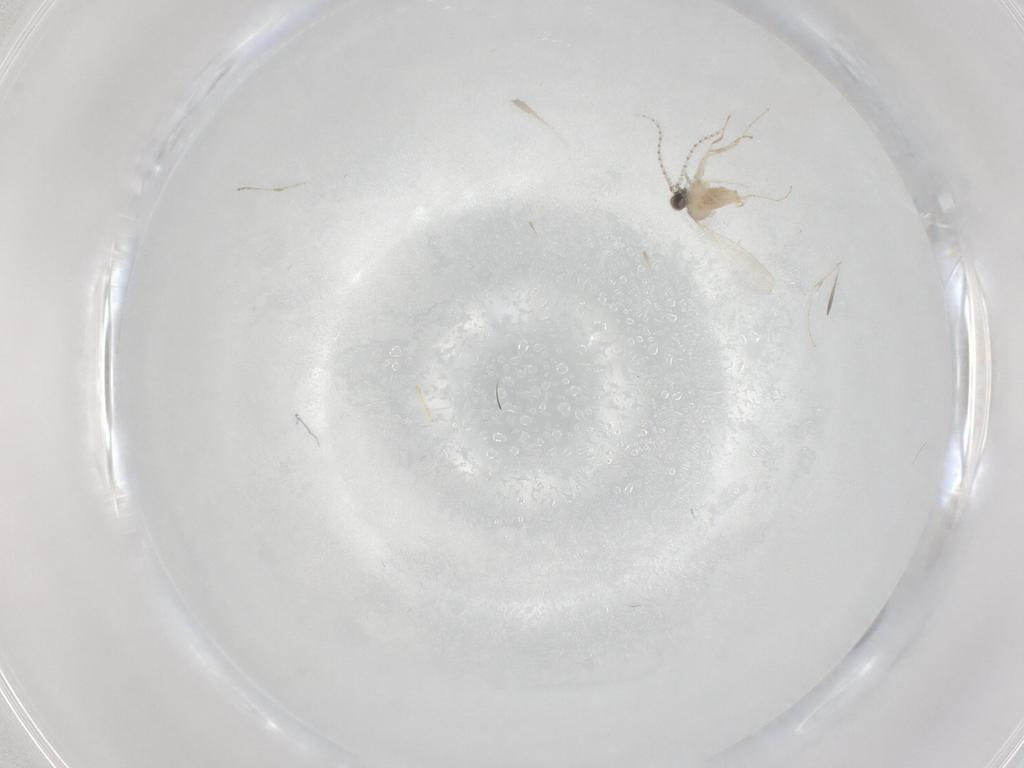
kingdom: Animalia
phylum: Arthropoda
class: Insecta
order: Diptera
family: Cecidomyiidae
